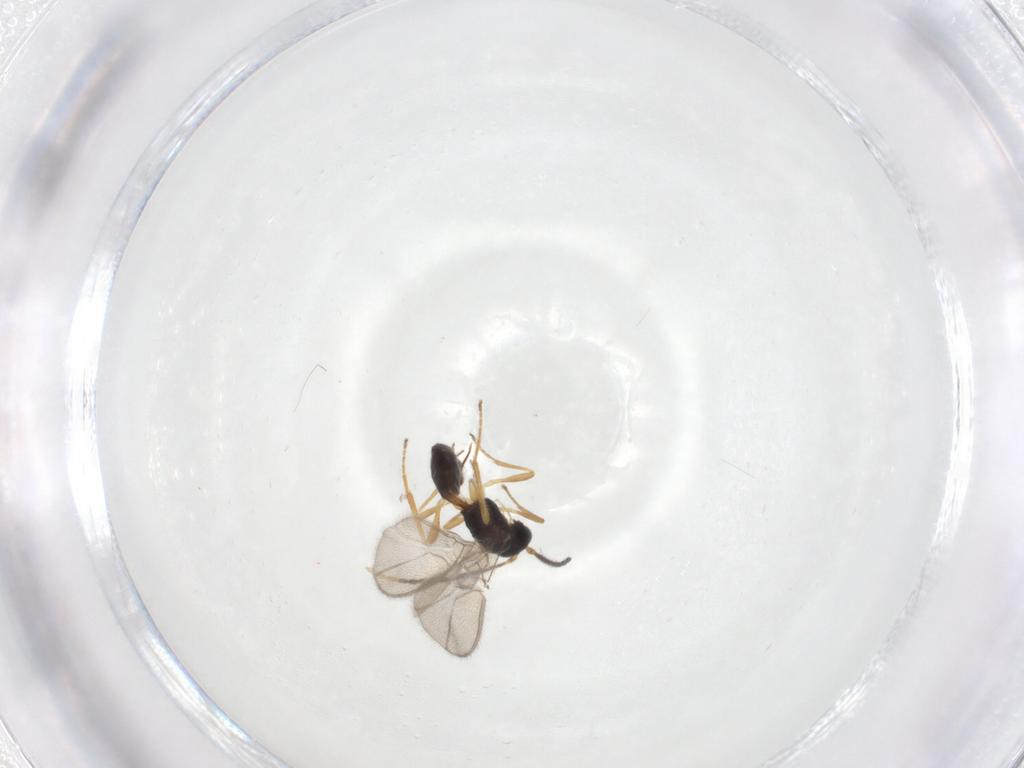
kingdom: Animalia
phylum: Arthropoda
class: Insecta
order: Hymenoptera
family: Braconidae
